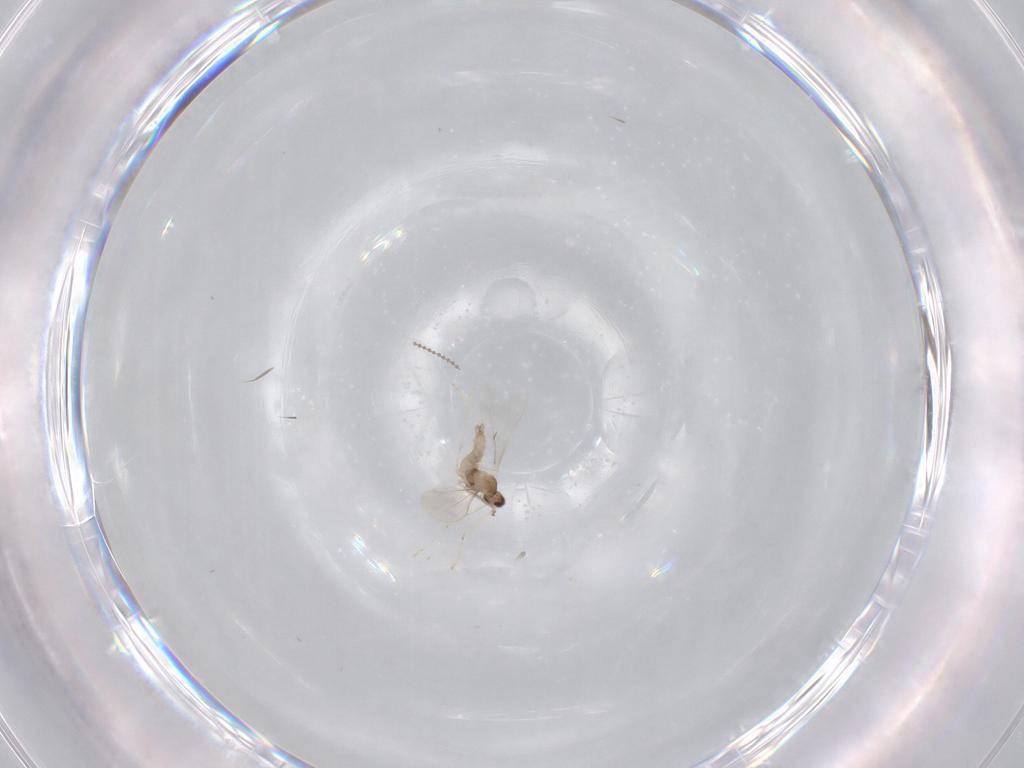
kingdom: Animalia
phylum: Arthropoda
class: Insecta
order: Diptera
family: Cecidomyiidae
